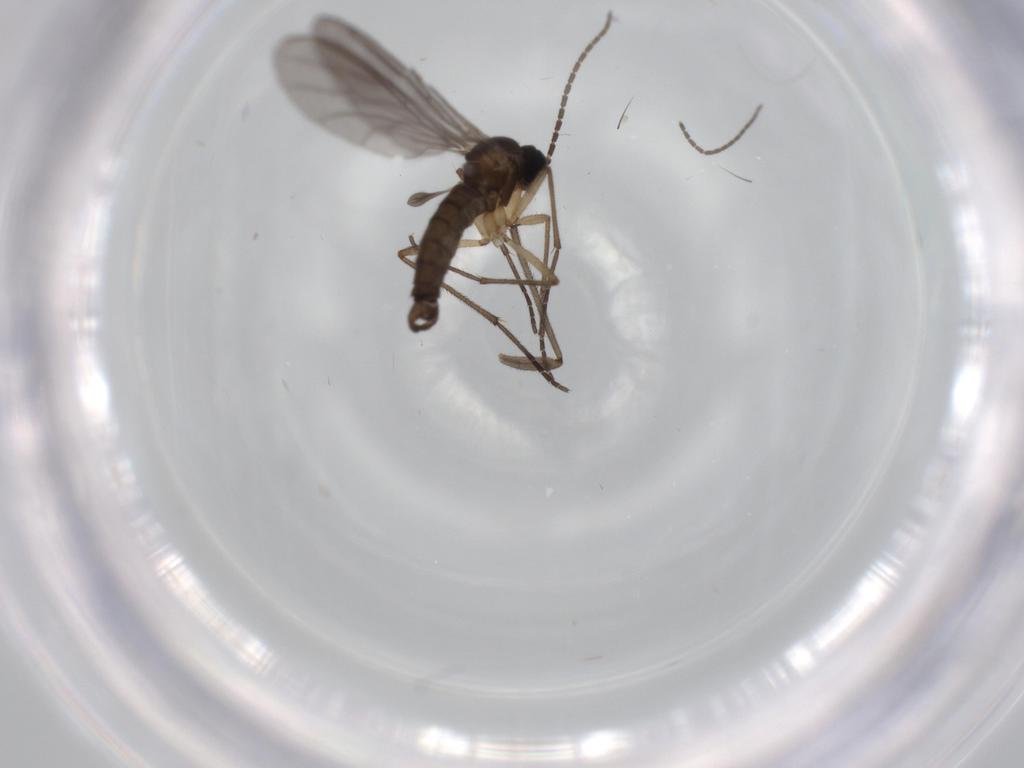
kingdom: Animalia
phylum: Arthropoda
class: Insecta
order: Diptera
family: Sciaridae
